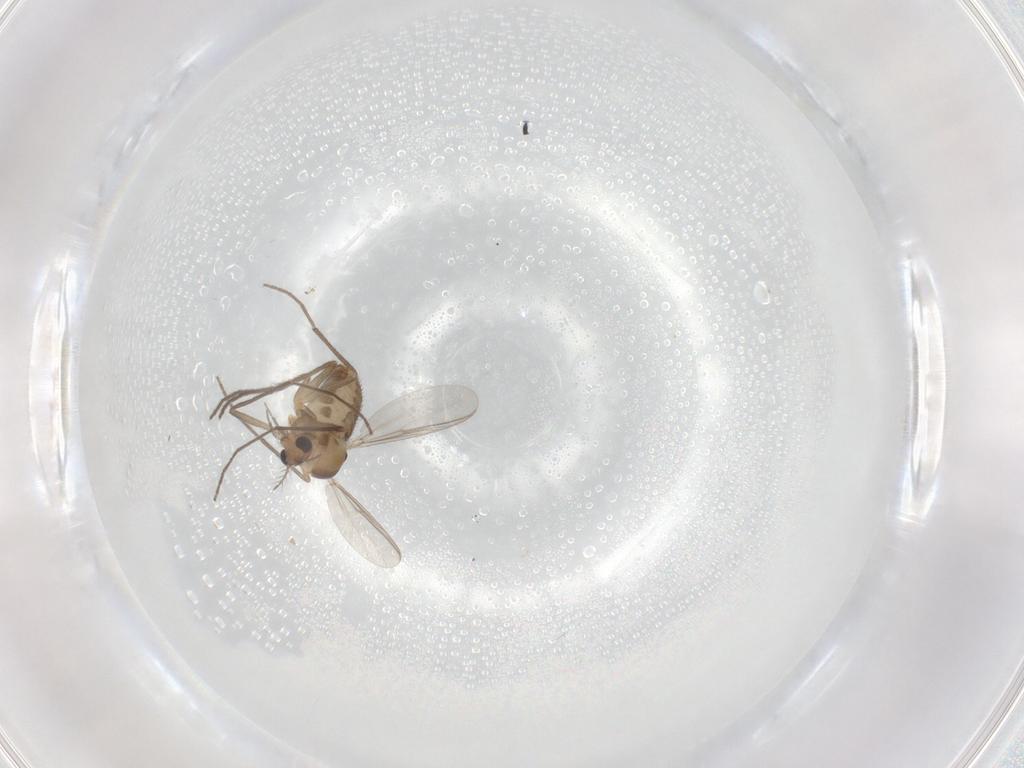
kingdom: Animalia
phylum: Arthropoda
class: Insecta
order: Diptera
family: Chironomidae
